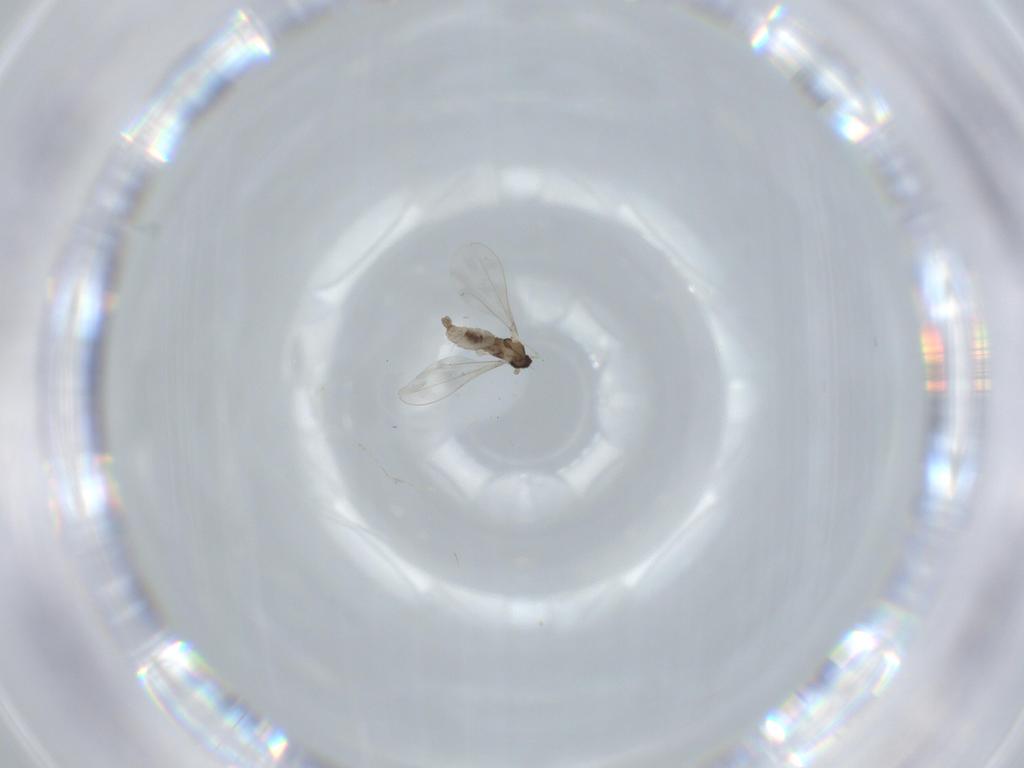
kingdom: Animalia
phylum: Arthropoda
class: Insecta
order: Diptera
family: Cecidomyiidae
